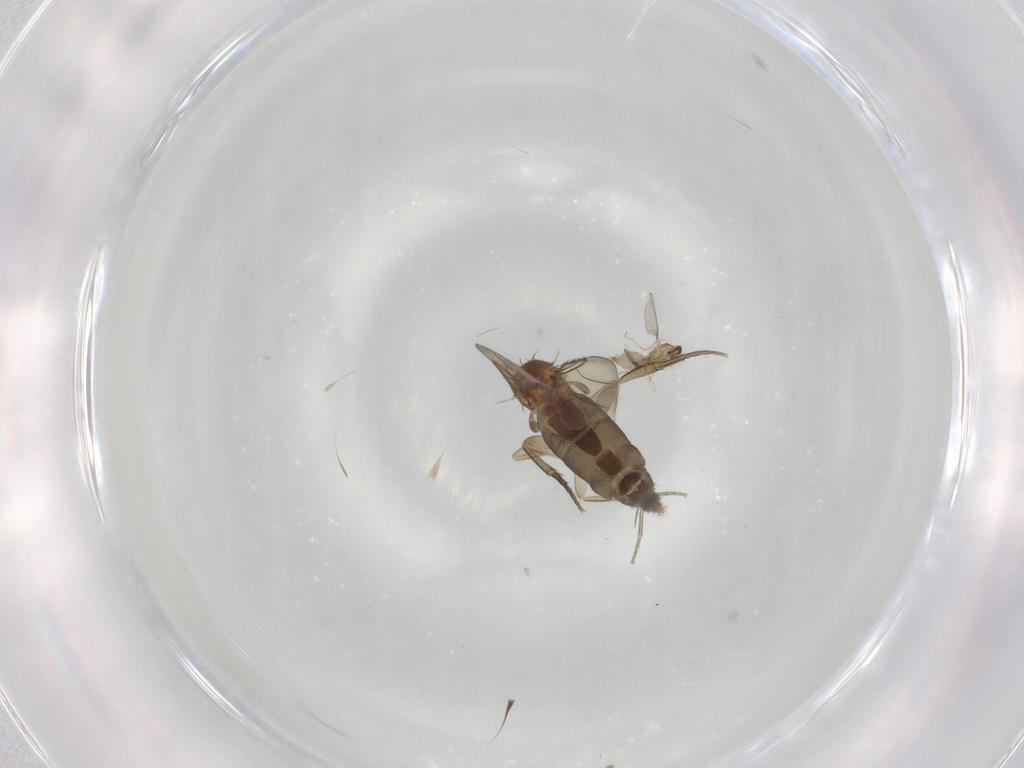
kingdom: Animalia
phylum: Arthropoda
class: Insecta
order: Diptera
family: Phoridae
